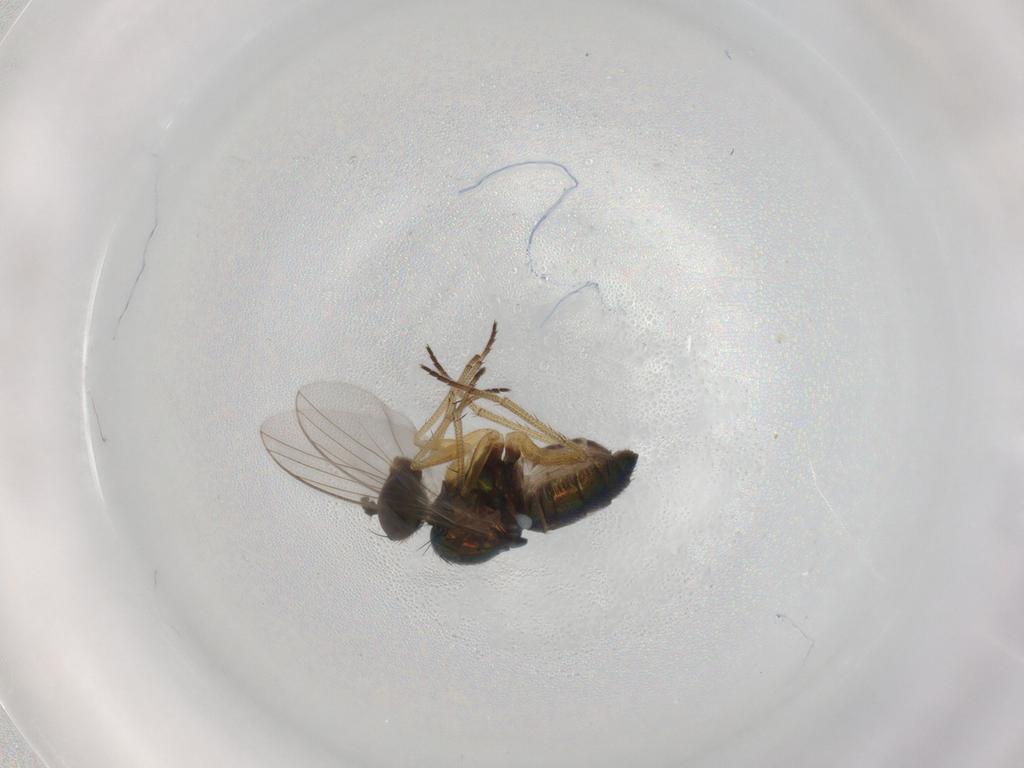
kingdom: Animalia
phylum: Arthropoda
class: Insecta
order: Diptera
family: Dolichopodidae
